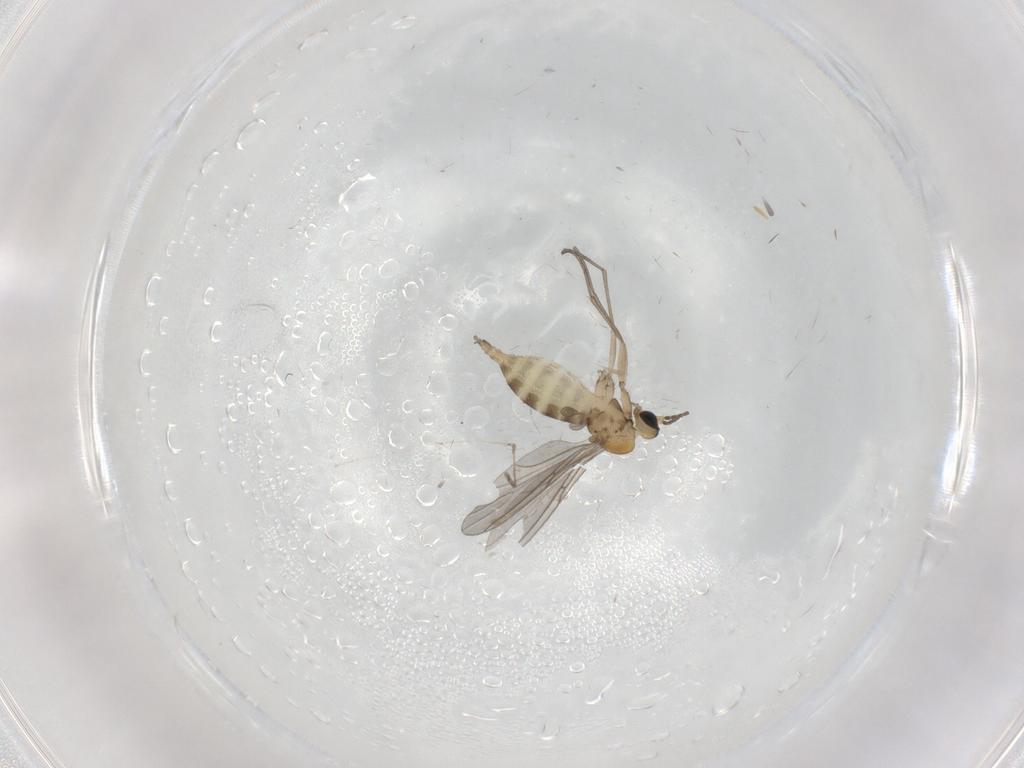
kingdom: Animalia
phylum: Arthropoda
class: Insecta
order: Diptera
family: Sciaridae
